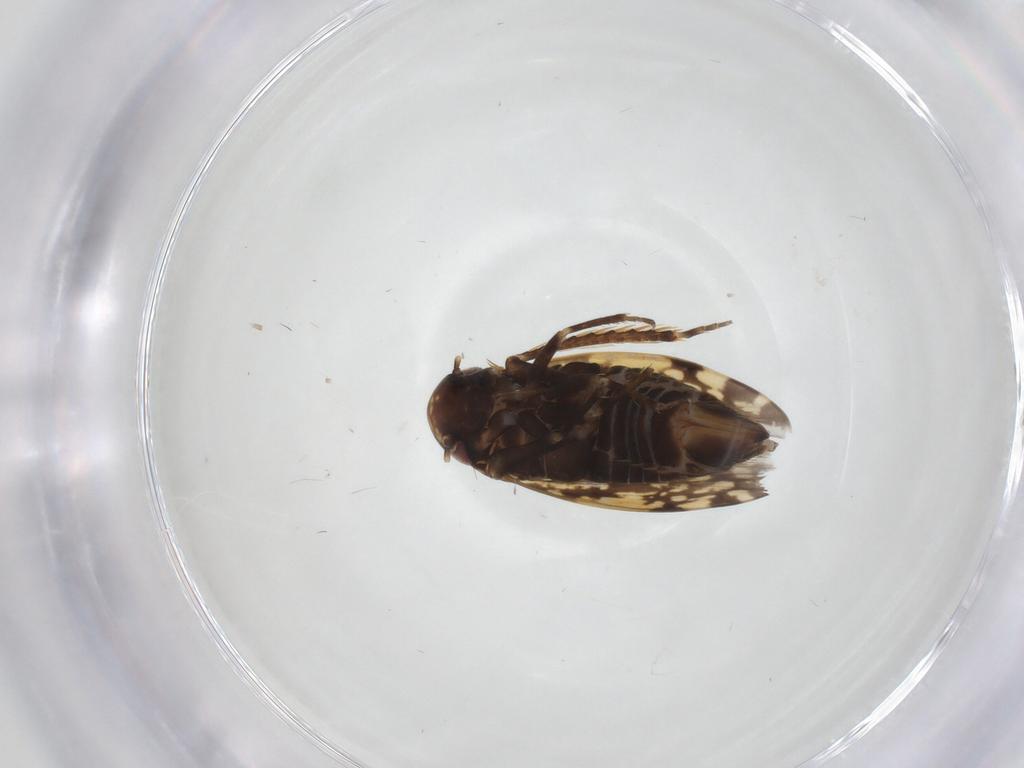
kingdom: Animalia
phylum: Arthropoda
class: Insecta
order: Hemiptera
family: Cicadellidae
